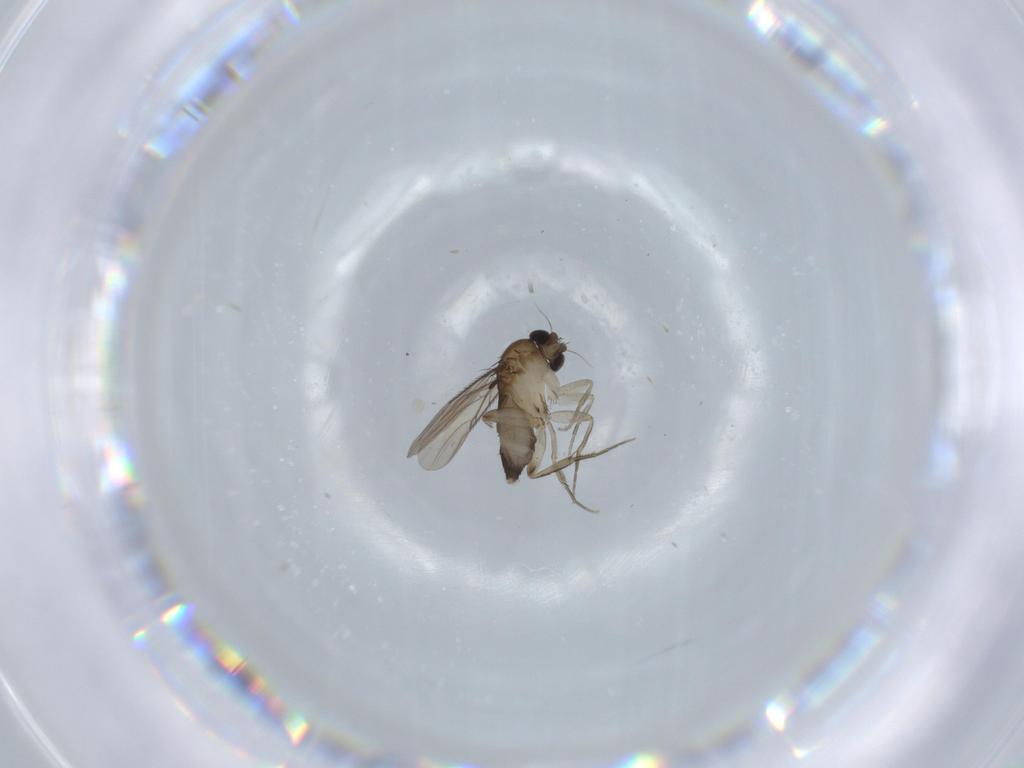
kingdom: Animalia
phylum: Arthropoda
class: Insecta
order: Diptera
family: Phoridae
